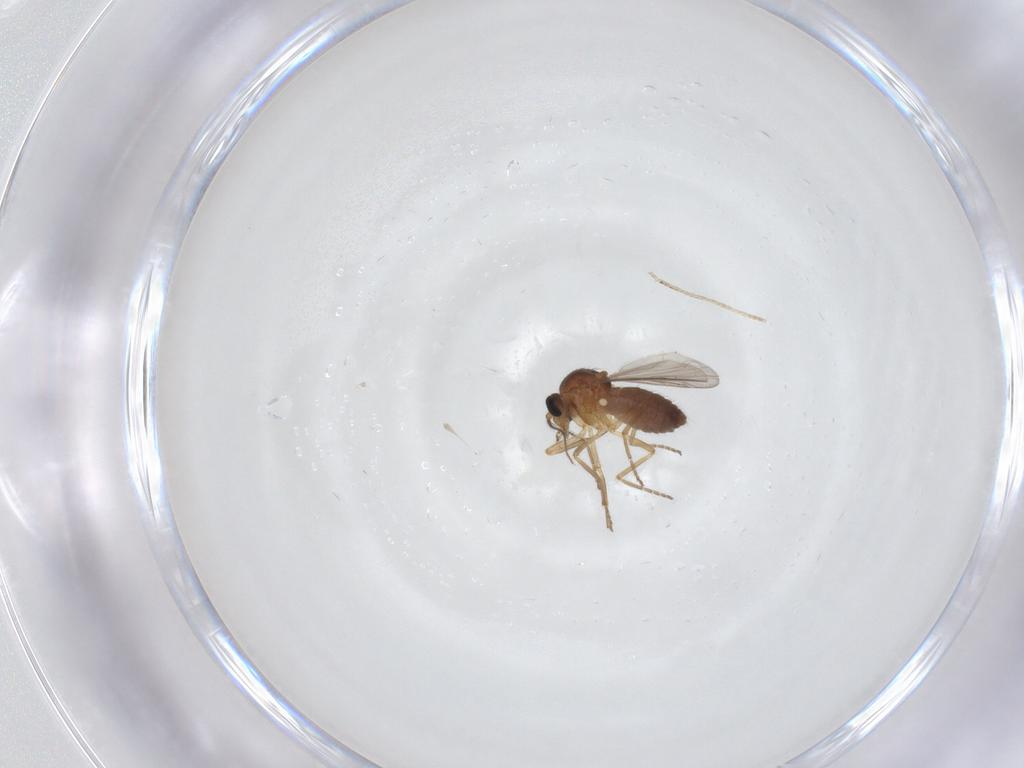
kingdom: Animalia
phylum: Arthropoda
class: Insecta
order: Diptera
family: Ceratopogonidae
